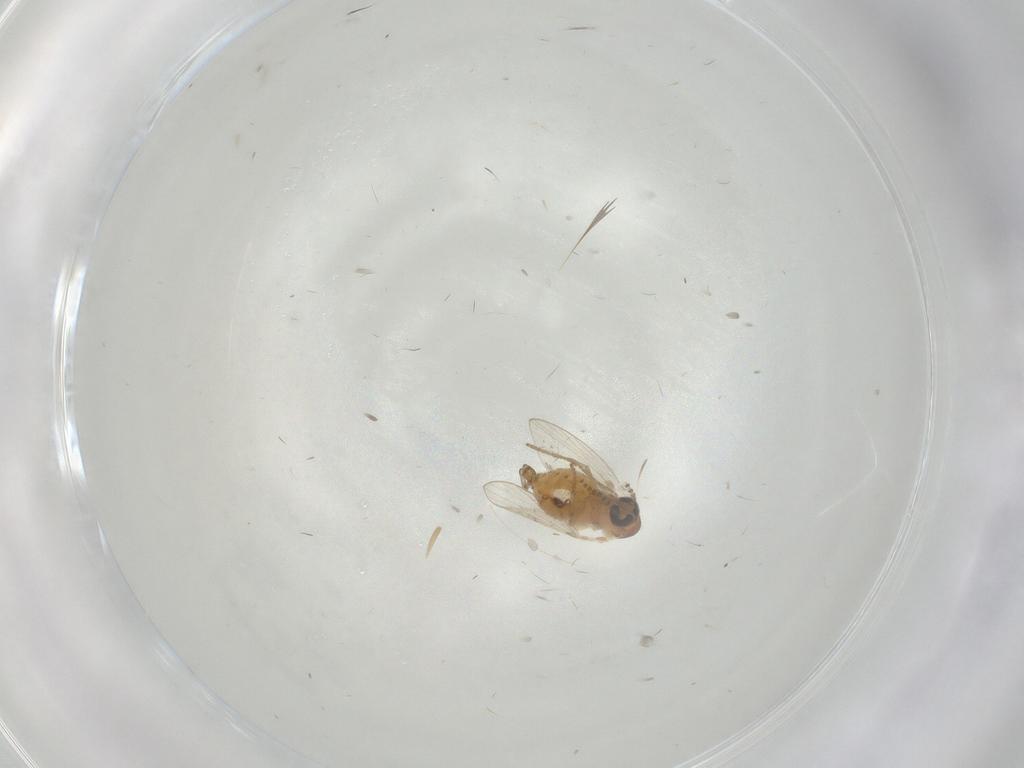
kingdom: Animalia
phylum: Arthropoda
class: Insecta
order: Diptera
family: Psychodidae
